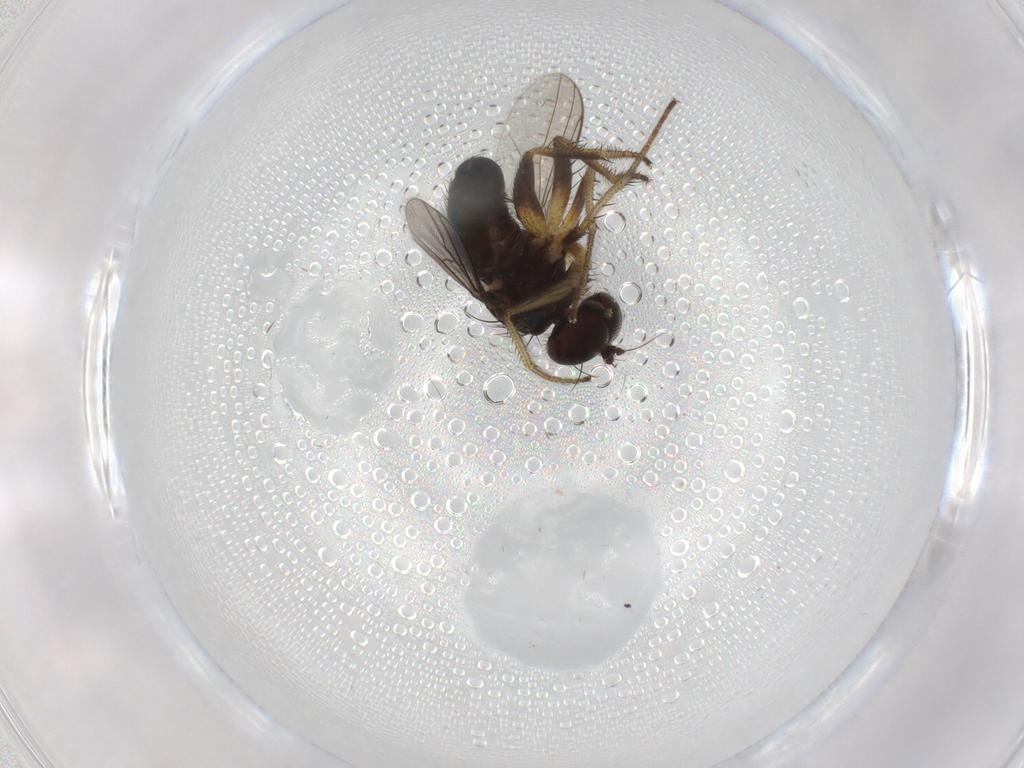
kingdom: Animalia
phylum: Arthropoda
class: Insecta
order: Diptera
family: Dolichopodidae
